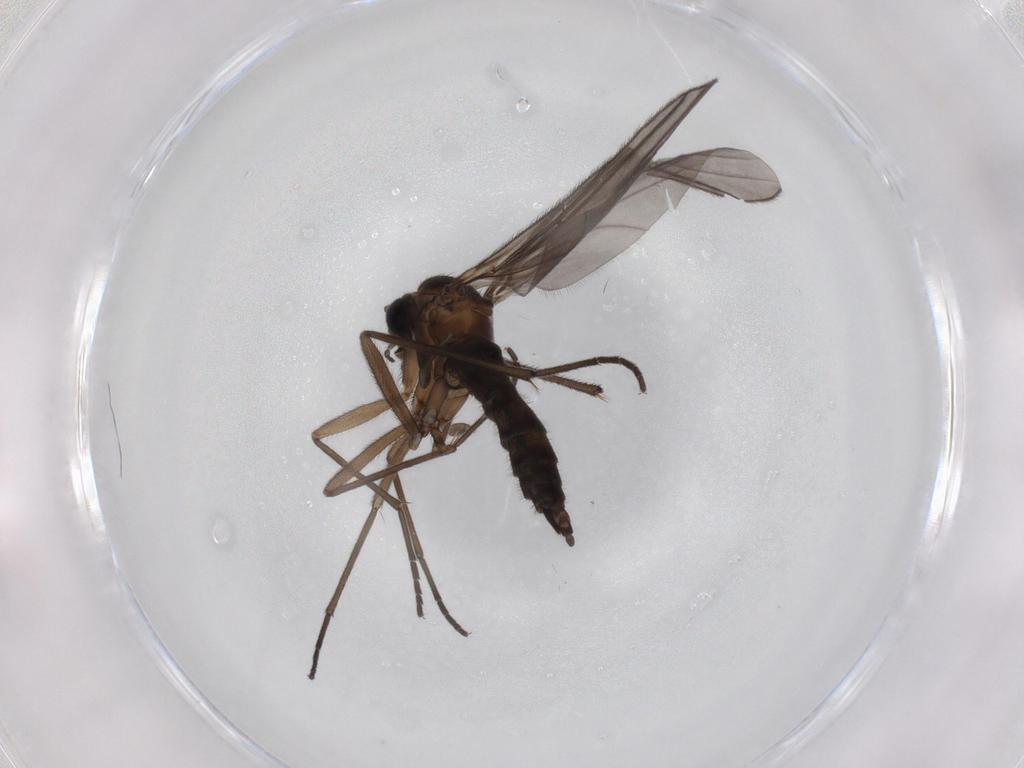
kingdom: Animalia
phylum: Arthropoda
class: Insecta
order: Diptera
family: Sciaridae
